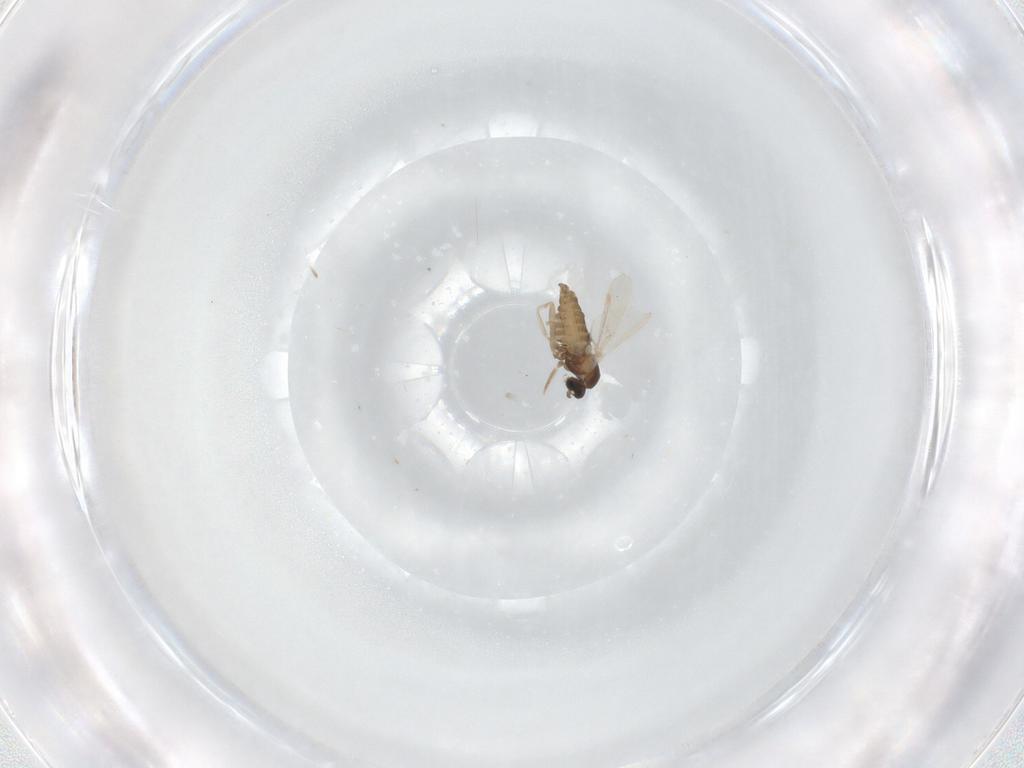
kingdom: Animalia
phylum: Arthropoda
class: Insecta
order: Diptera
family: Cecidomyiidae
